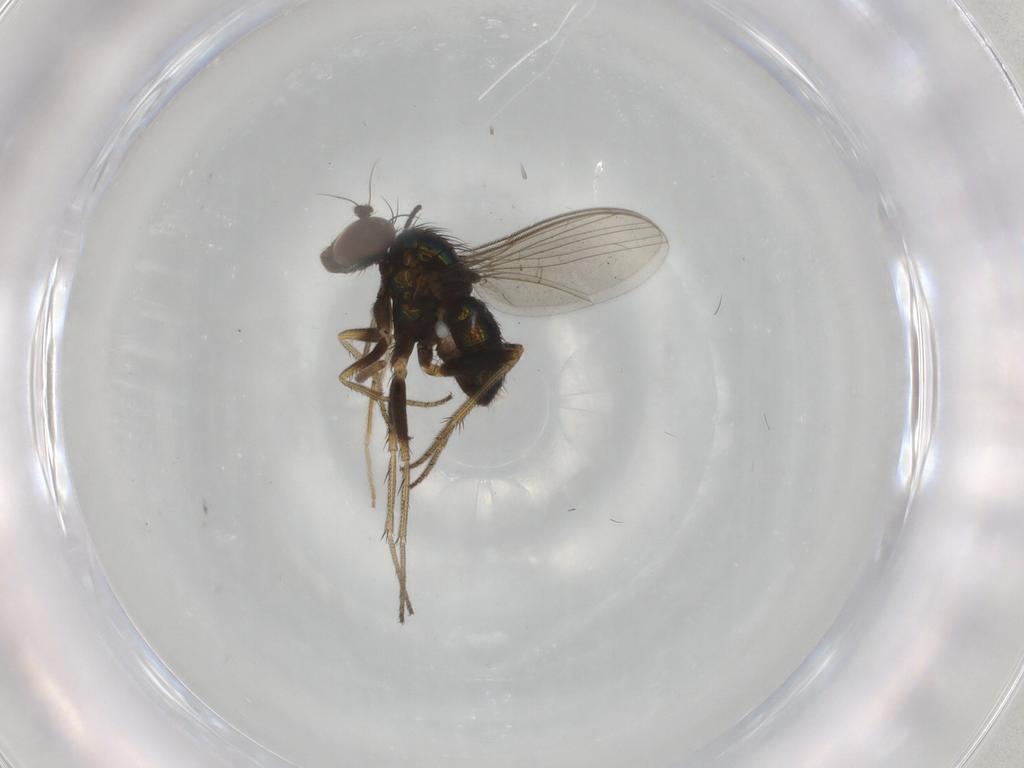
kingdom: Animalia
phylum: Arthropoda
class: Insecta
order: Diptera
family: Dolichopodidae
